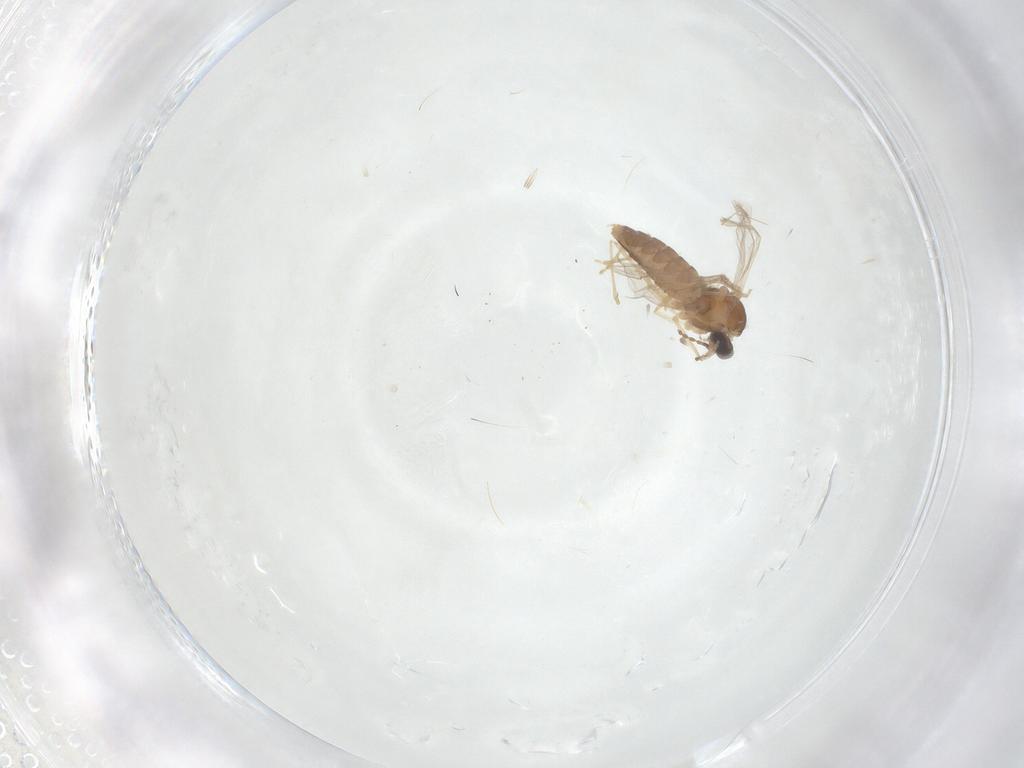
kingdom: Animalia
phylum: Arthropoda
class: Insecta
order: Diptera
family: Cecidomyiidae
